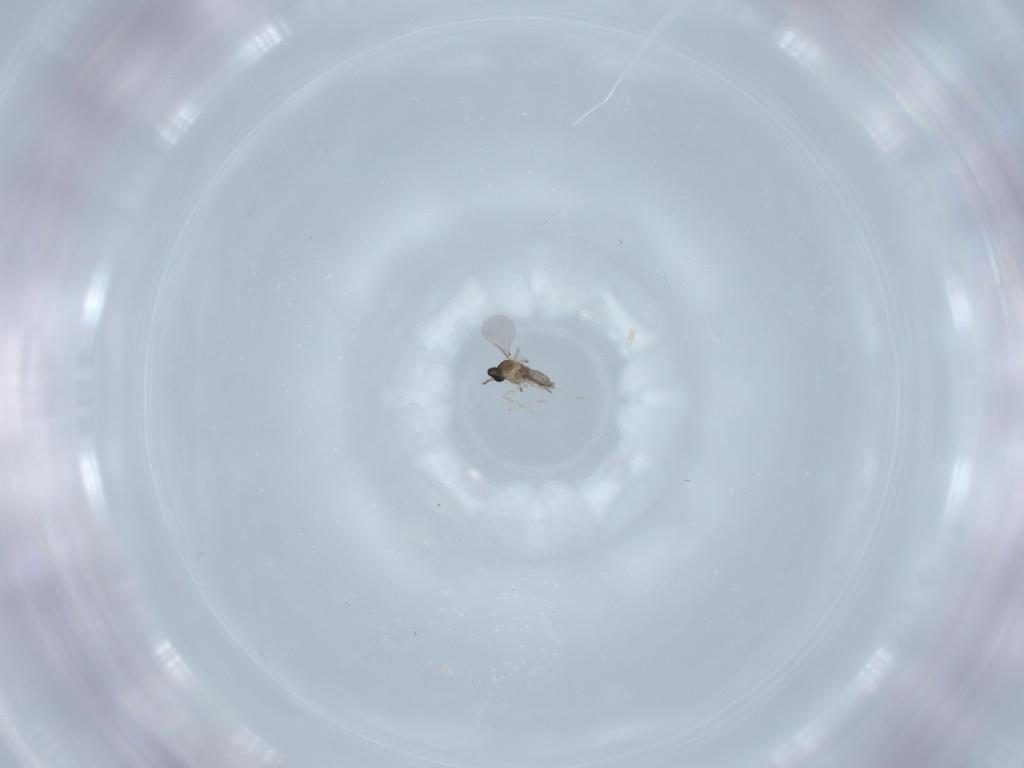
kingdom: Animalia
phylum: Arthropoda
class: Insecta
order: Diptera
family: Cecidomyiidae
